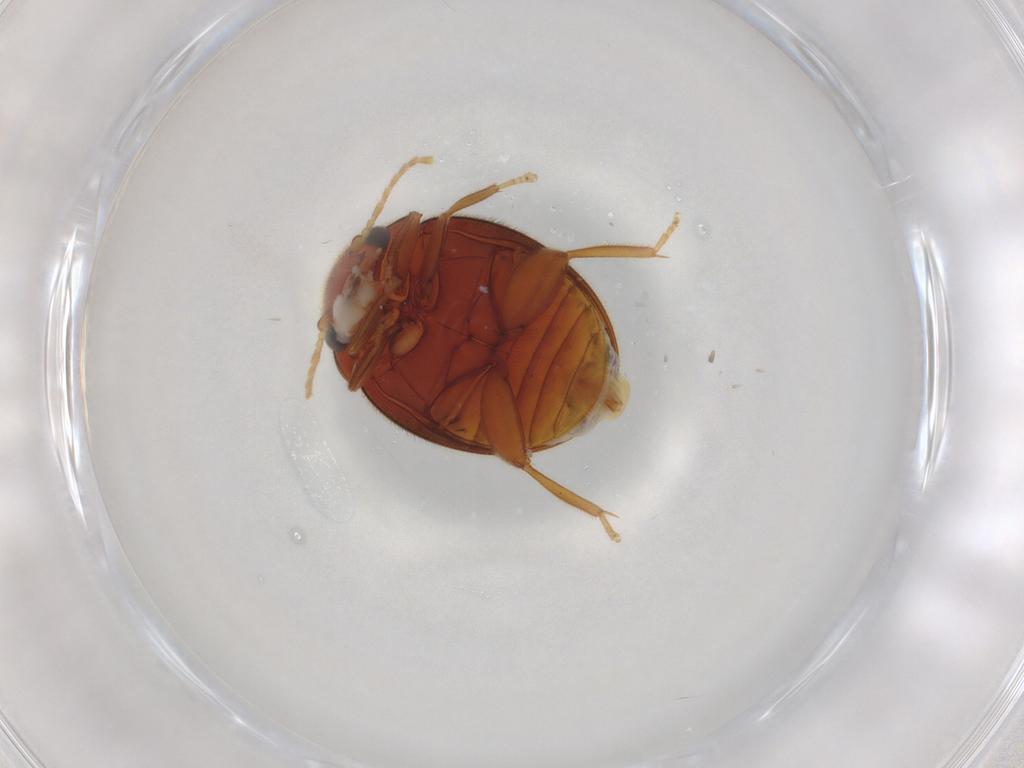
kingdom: Animalia
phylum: Arthropoda
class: Insecta
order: Coleoptera
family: Scirtidae
